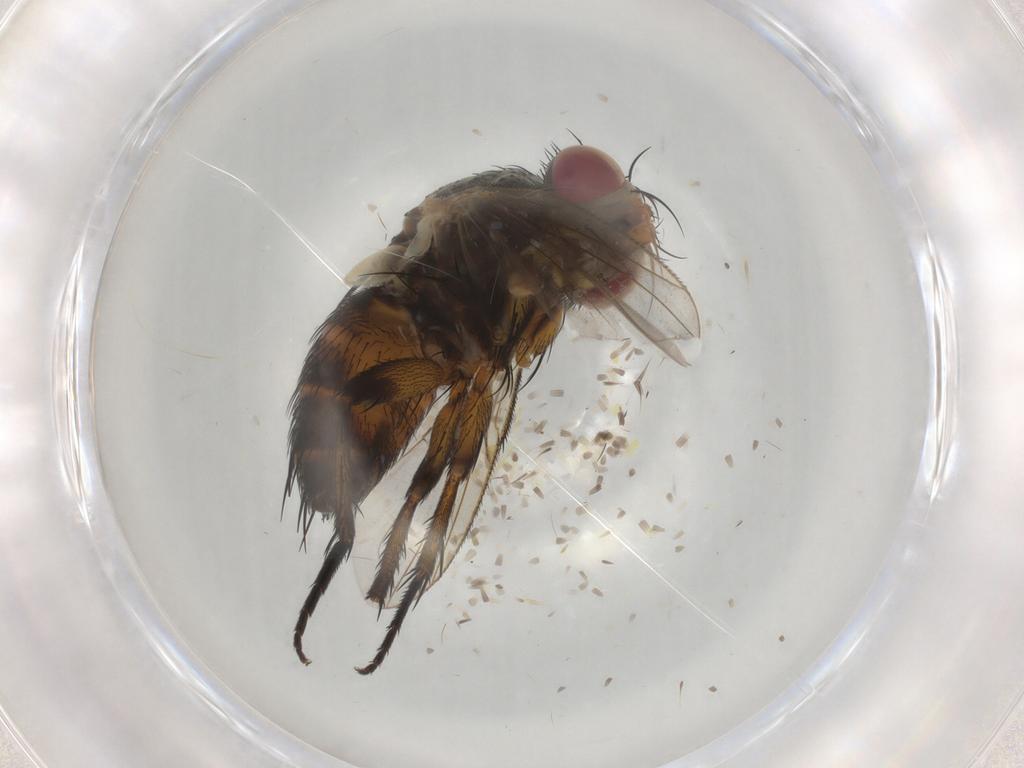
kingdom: Animalia
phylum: Arthropoda
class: Insecta
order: Diptera
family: Tachinidae
